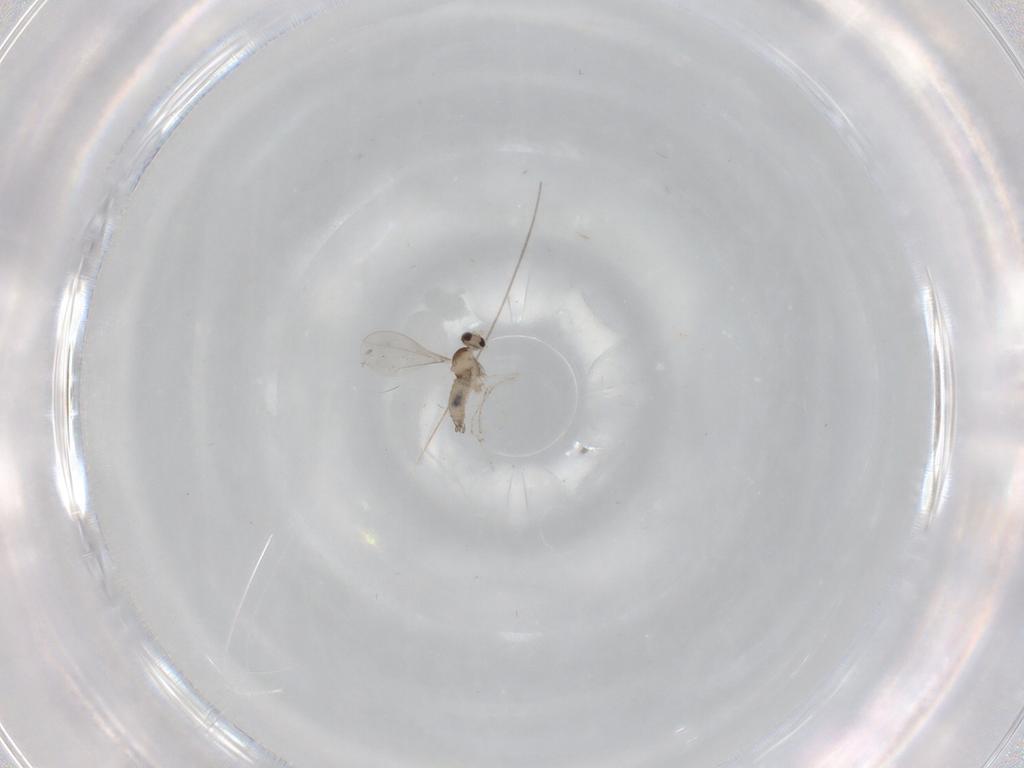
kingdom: Animalia
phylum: Arthropoda
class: Insecta
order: Diptera
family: Cecidomyiidae
